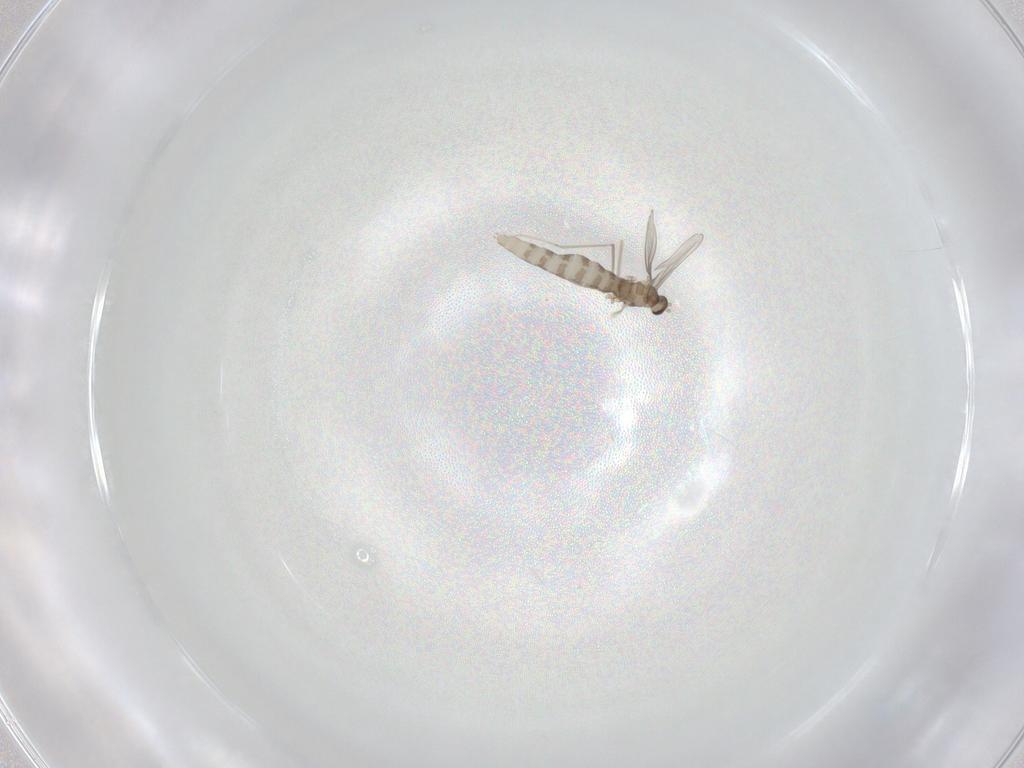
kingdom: Animalia
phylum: Arthropoda
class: Insecta
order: Diptera
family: Cecidomyiidae
